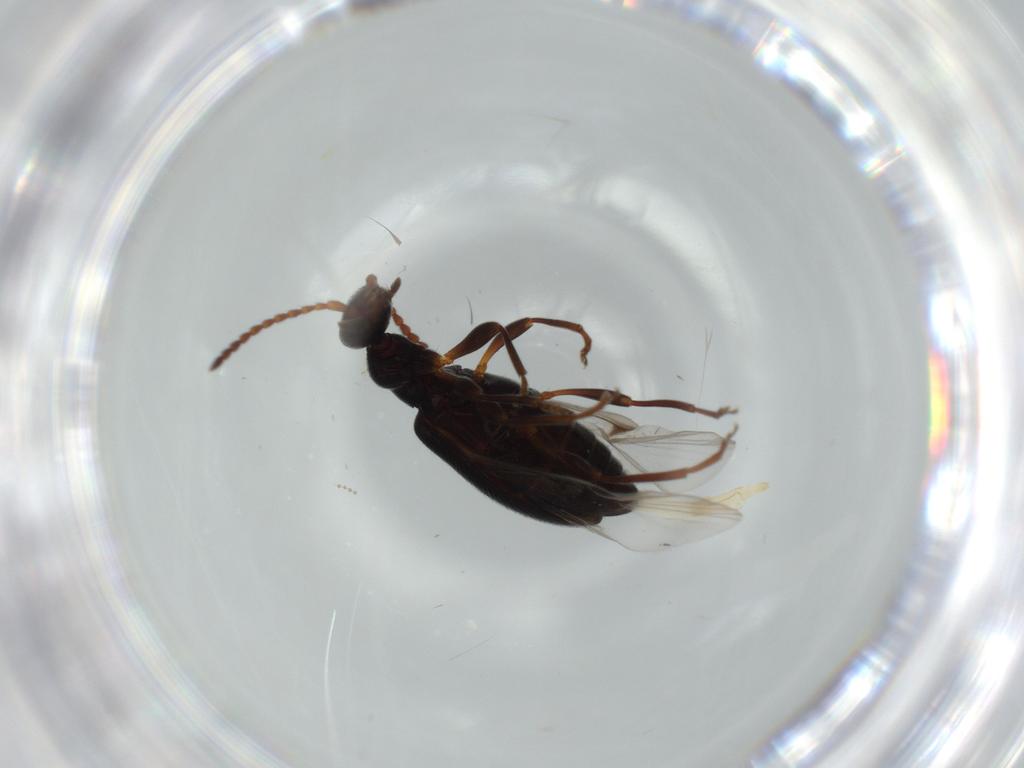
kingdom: Animalia
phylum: Arthropoda
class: Insecta
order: Coleoptera
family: Anthicidae
